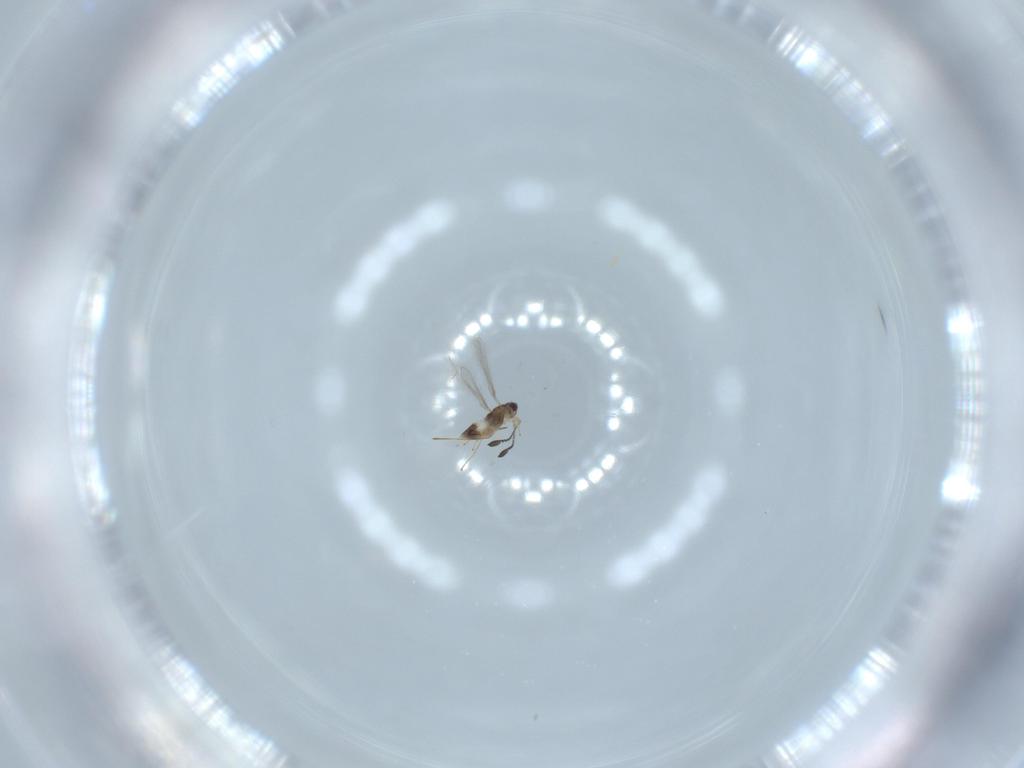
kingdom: Animalia
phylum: Arthropoda
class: Insecta
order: Hymenoptera
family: Mymaridae
